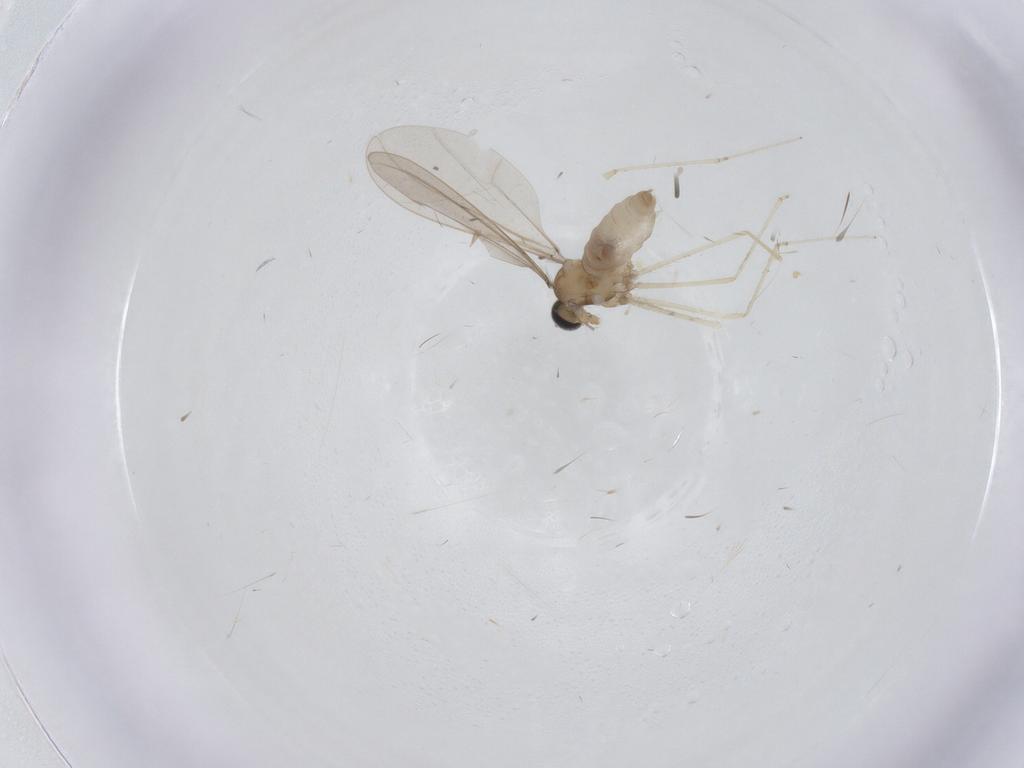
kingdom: Animalia
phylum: Arthropoda
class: Insecta
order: Diptera
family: Cecidomyiidae
